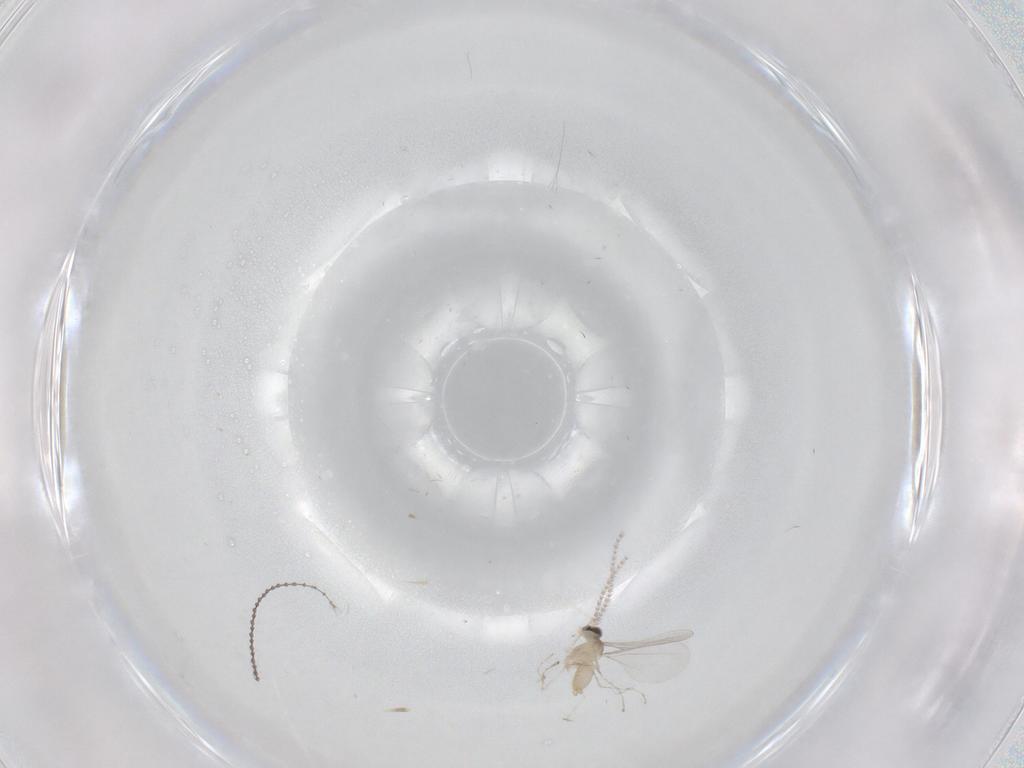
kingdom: Animalia
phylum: Arthropoda
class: Insecta
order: Diptera
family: Cecidomyiidae
